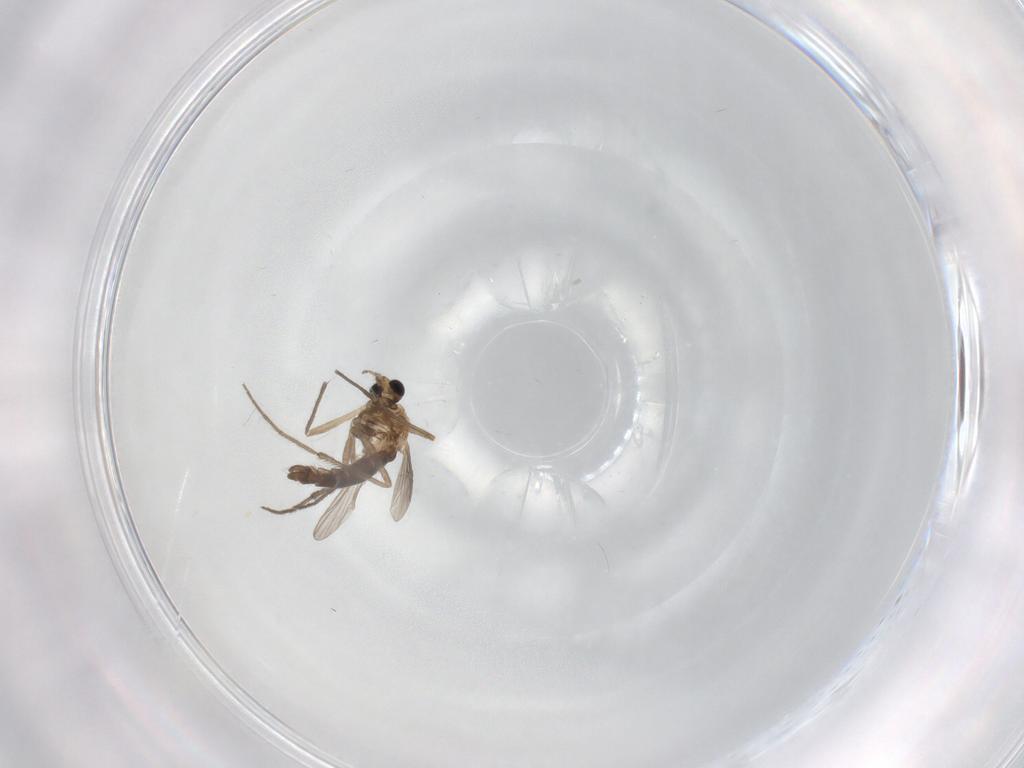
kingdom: Animalia
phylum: Arthropoda
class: Insecta
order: Diptera
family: Chironomidae
